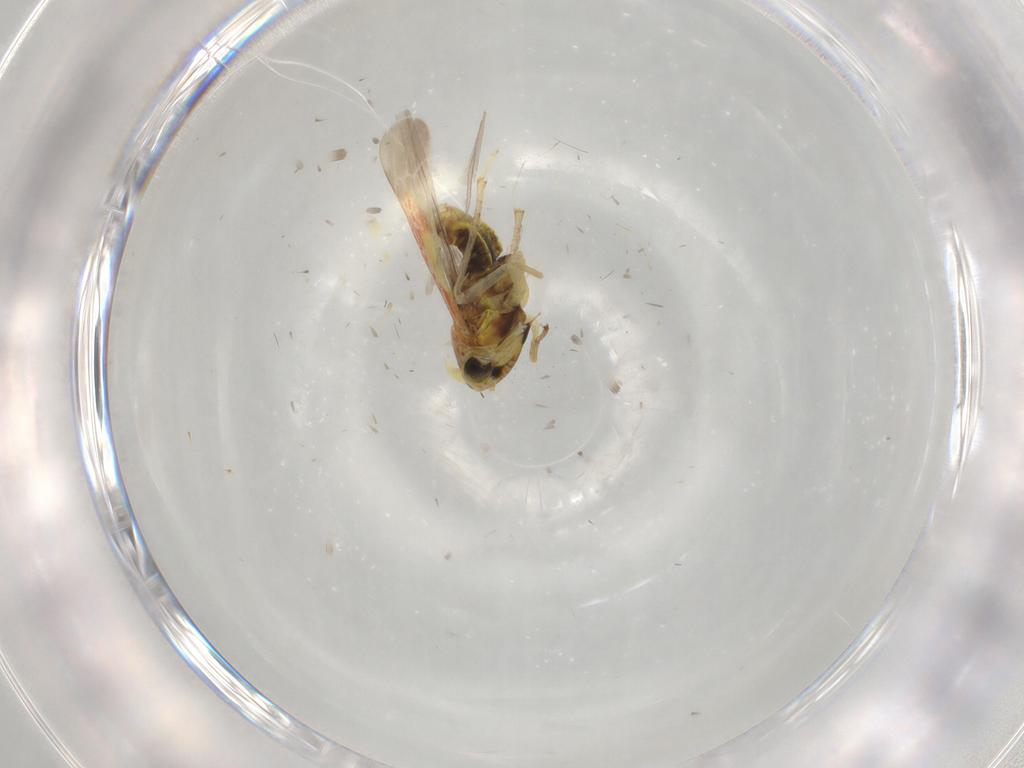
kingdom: Animalia
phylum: Arthropoda
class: Insecta
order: Hemiptera
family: Cicadellidae
